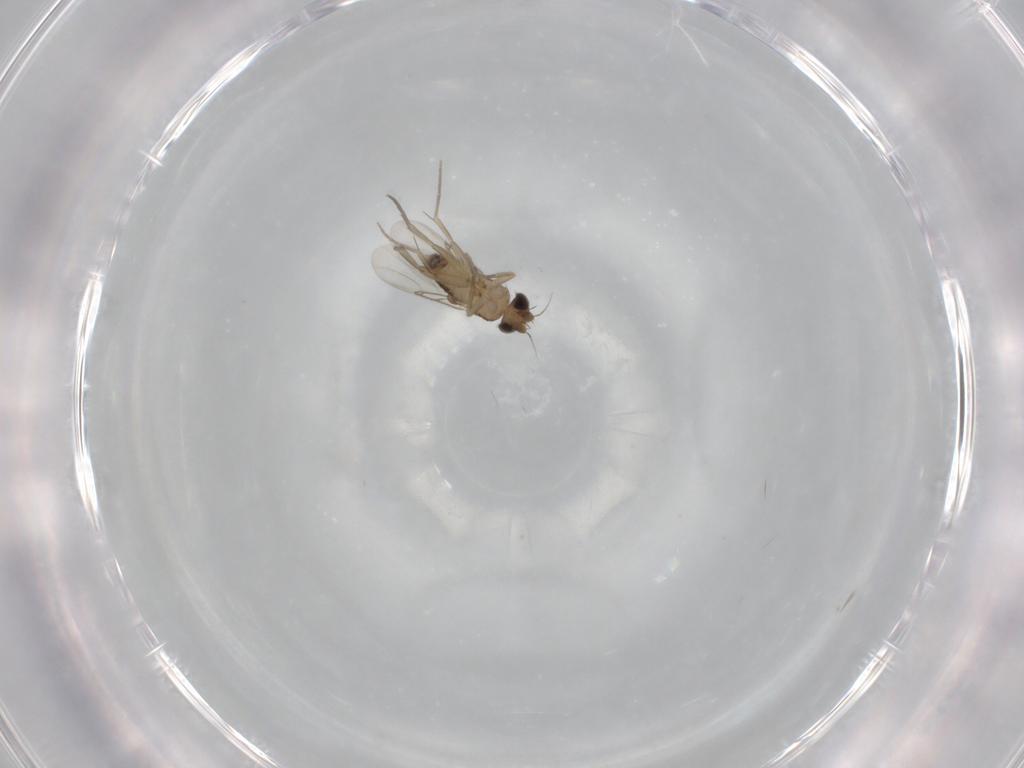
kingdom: Animalia
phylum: Arthropoda
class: Insecta
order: Diptera
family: Phoridae
